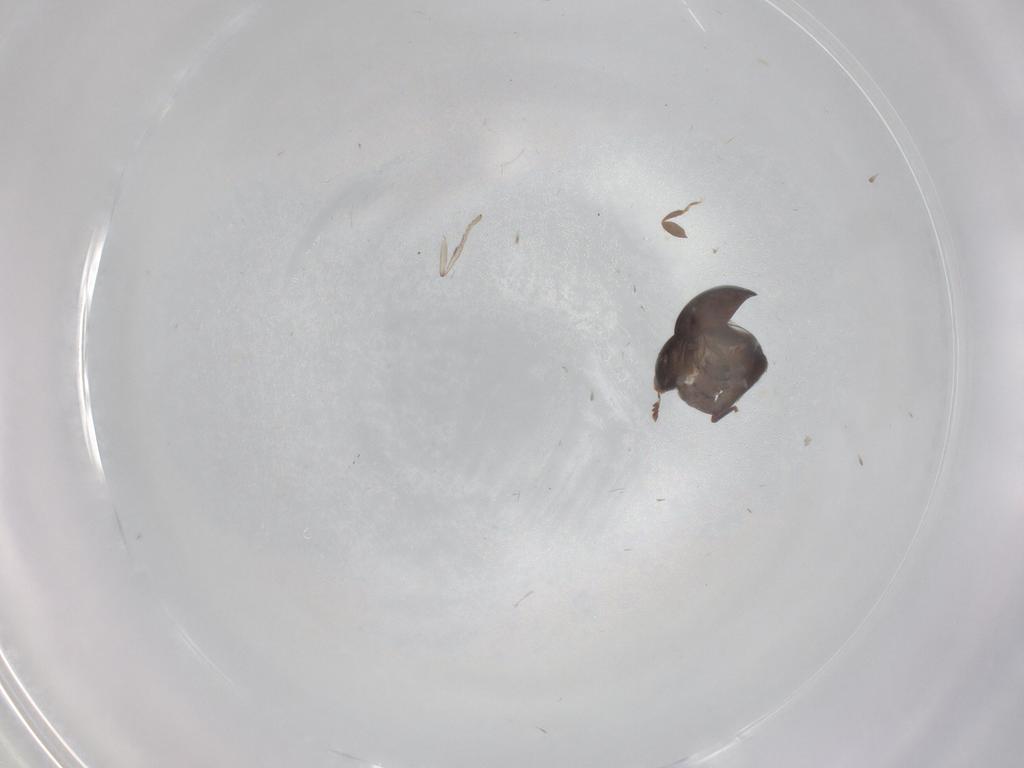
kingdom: Animalia
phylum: Arthropoda
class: Insecta
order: Coleoptera
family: Corylophidae
